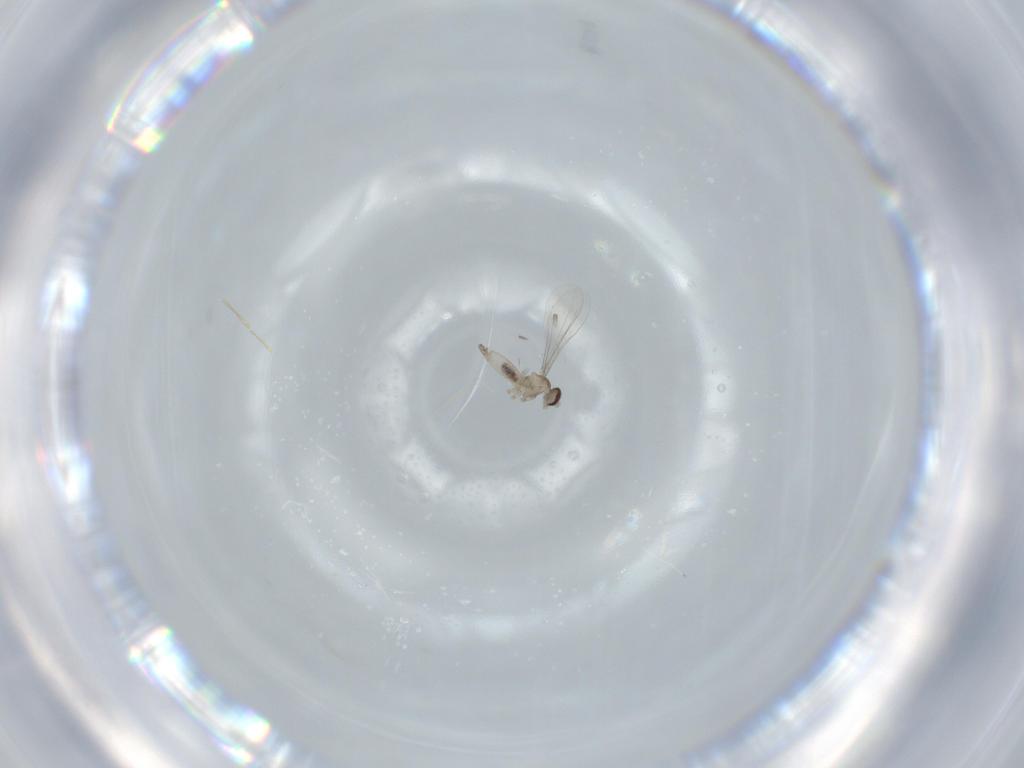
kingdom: Animalia
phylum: Arthropoda
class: Insecta
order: Diptera
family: Cecidomyiidae
